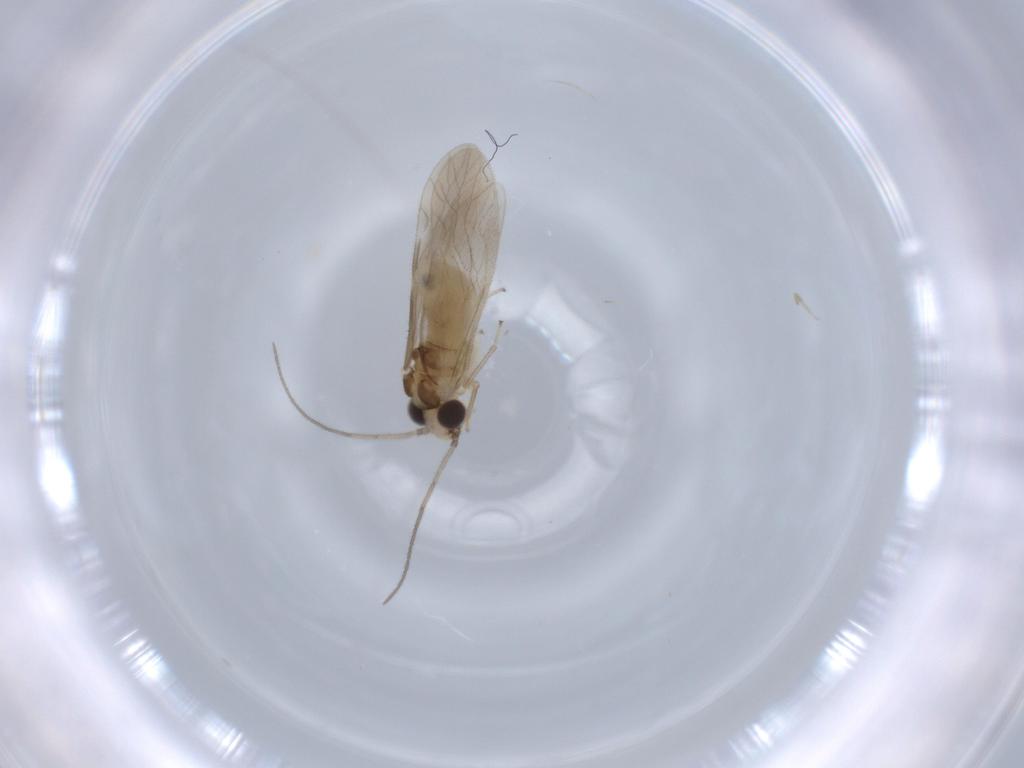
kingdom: Animalia
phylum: Arthropoda
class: Insecta
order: Psocodea
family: Caeciliusidae
